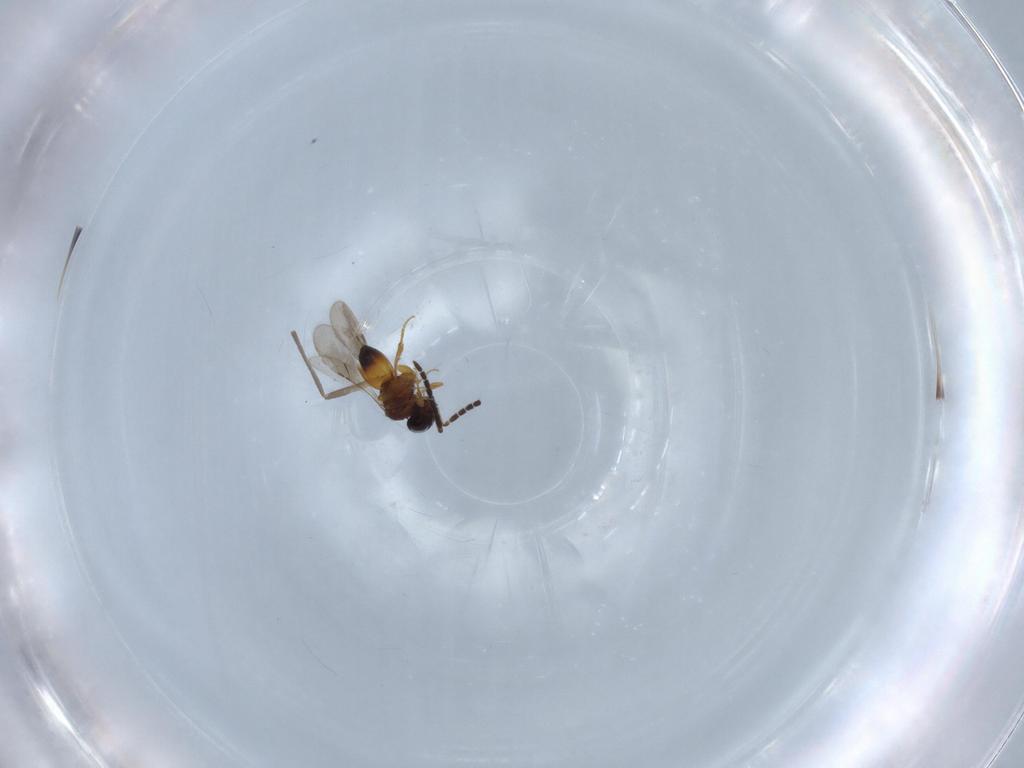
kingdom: Animalia
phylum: Arthropoda
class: Insecta
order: Hymenoptera
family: Ceraphronidae
